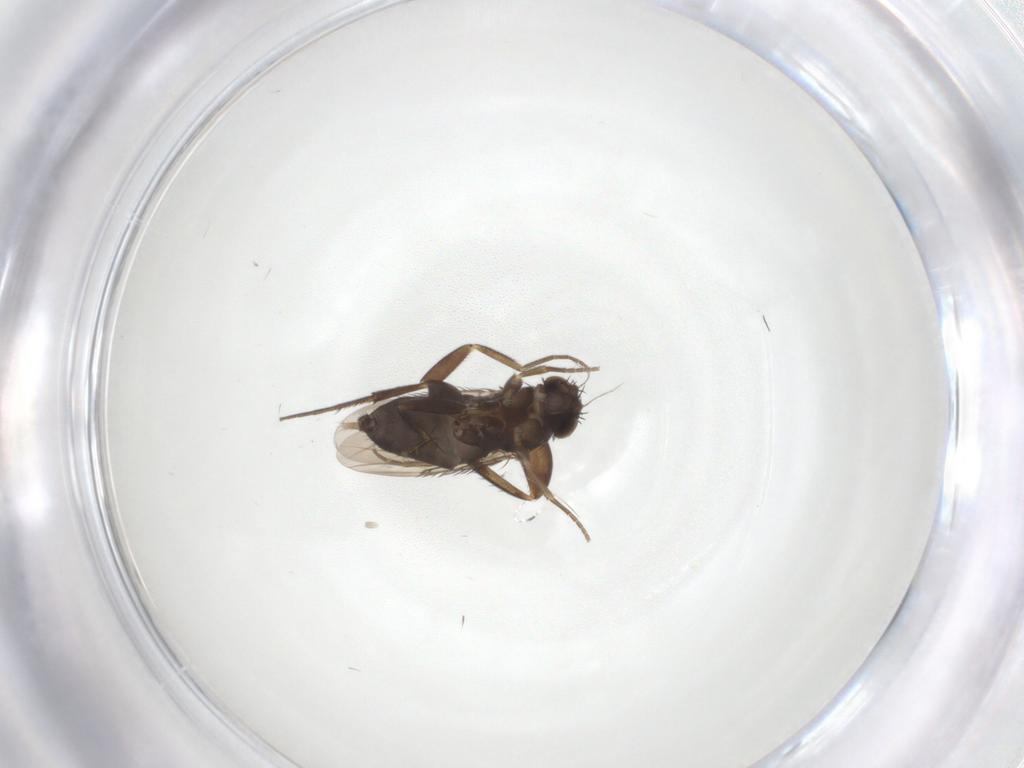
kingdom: Animalia
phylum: Arthropoda
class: Insecta
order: Diptera
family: Phoridae
